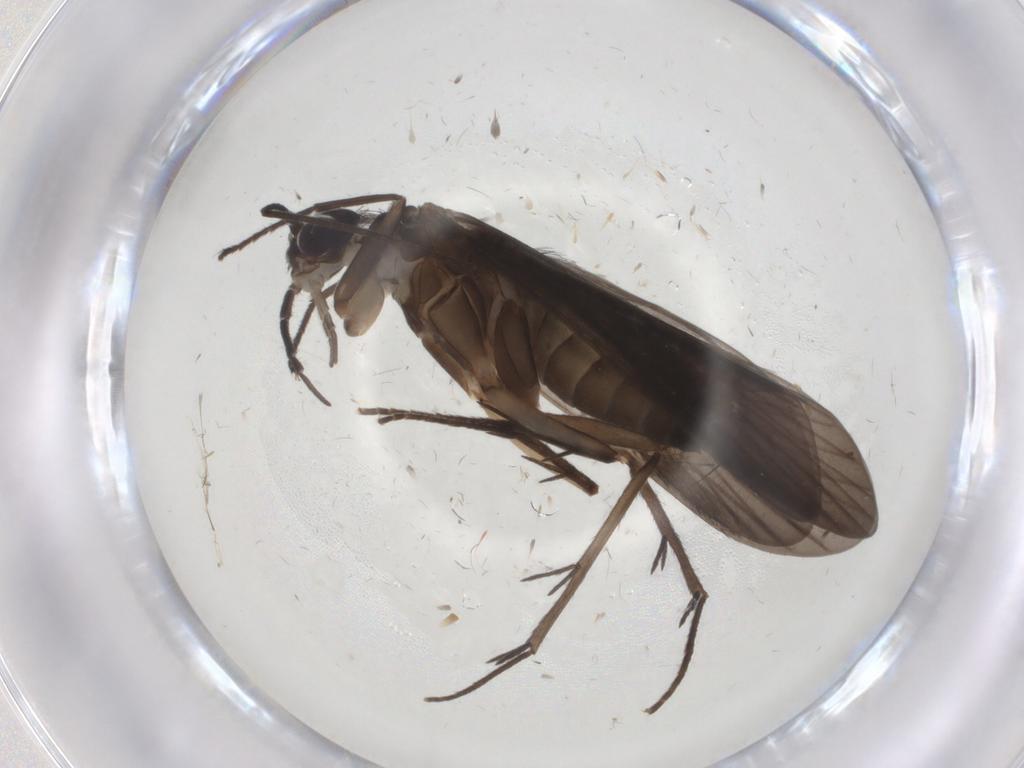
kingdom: Animalia
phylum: Arthropoda
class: Insecta
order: Trichoptera
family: Philopotamidae
